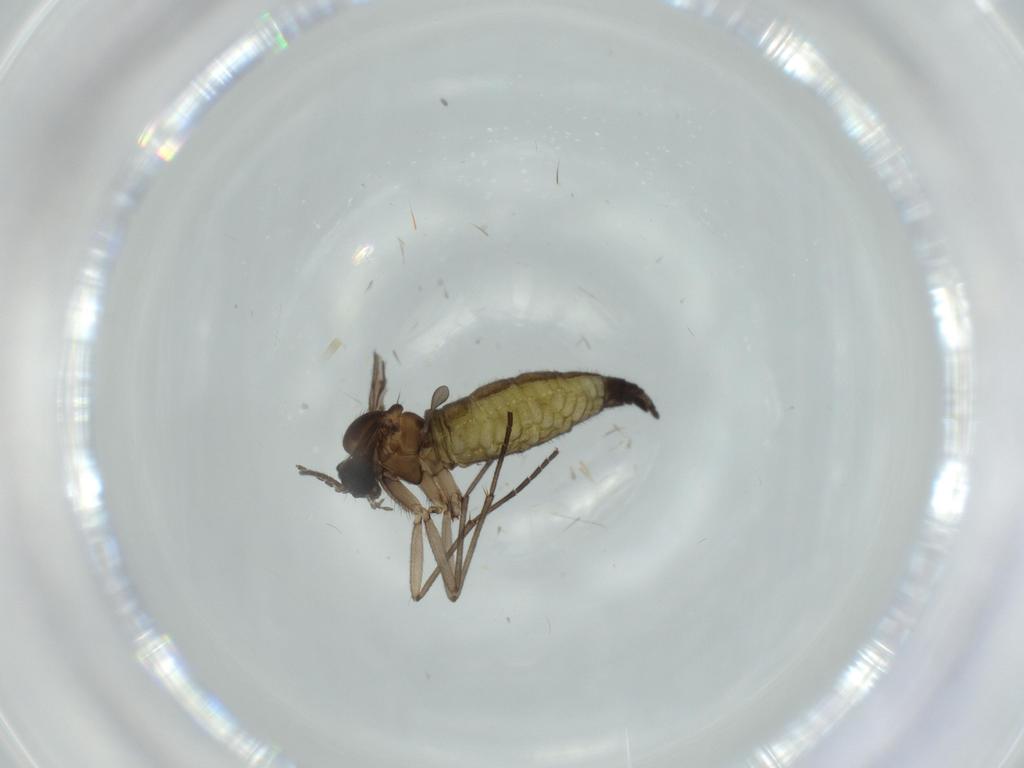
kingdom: Animalia
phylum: Arthropoda
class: Insecta
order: Diptera
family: Sciaridae
